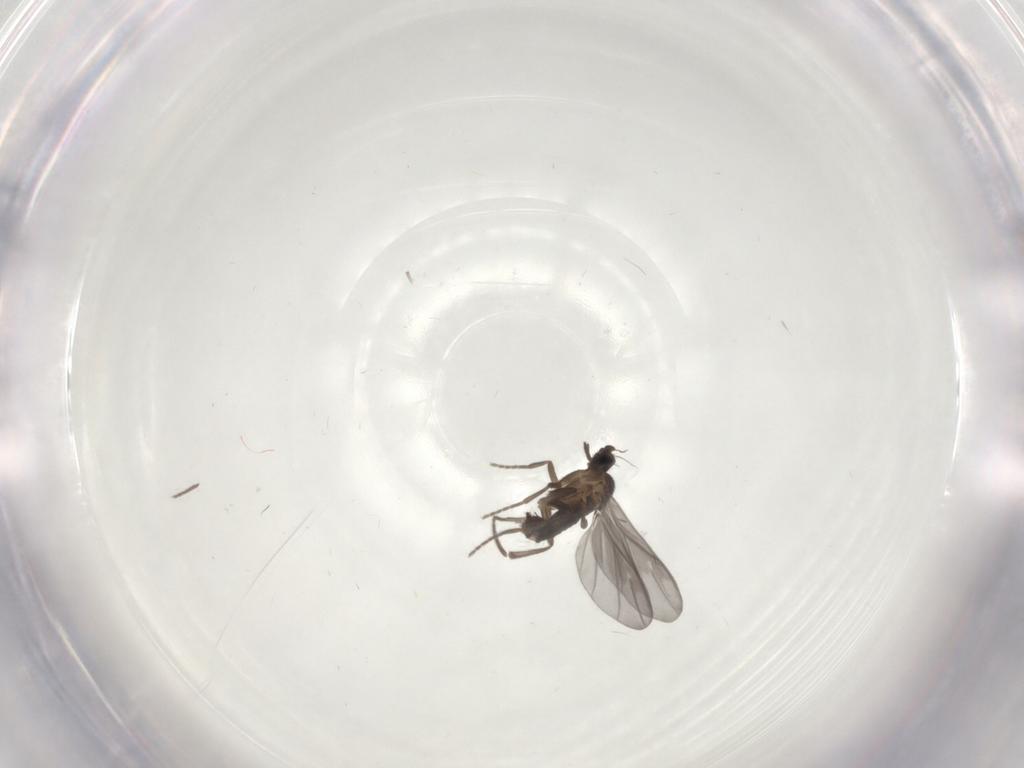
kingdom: Animalia
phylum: Arthropoda
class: Insecta
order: Diptera
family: Phoridae
